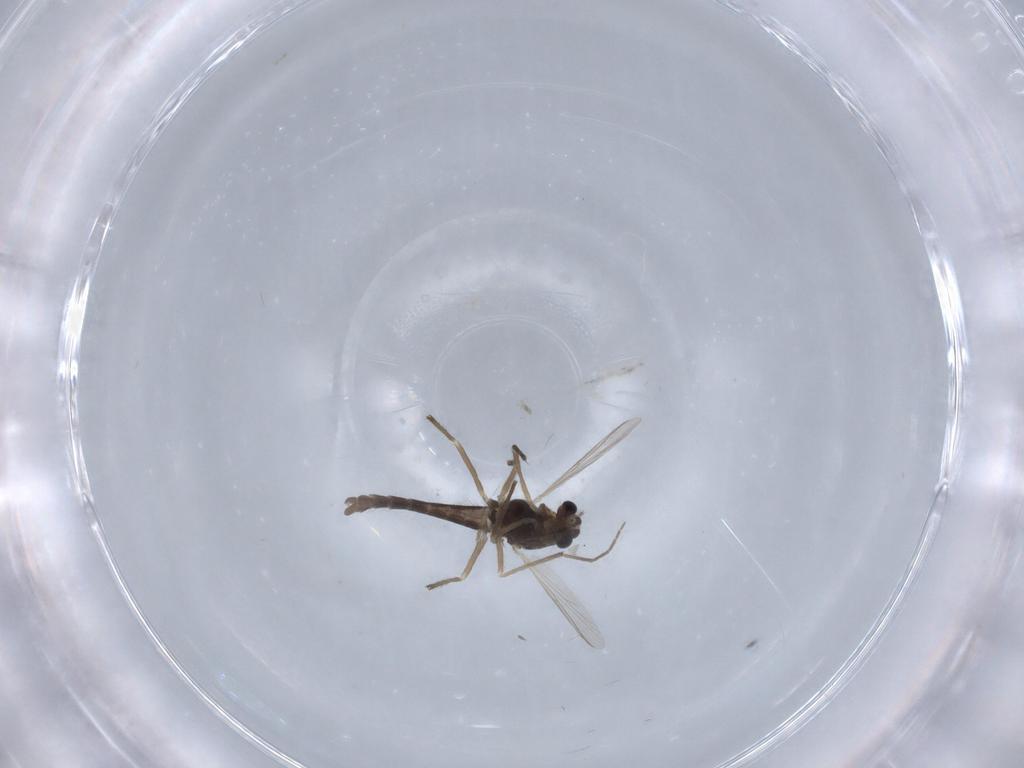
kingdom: Animalia
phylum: Arthropoda
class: Insecta
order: Diptera
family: Chironomidae
